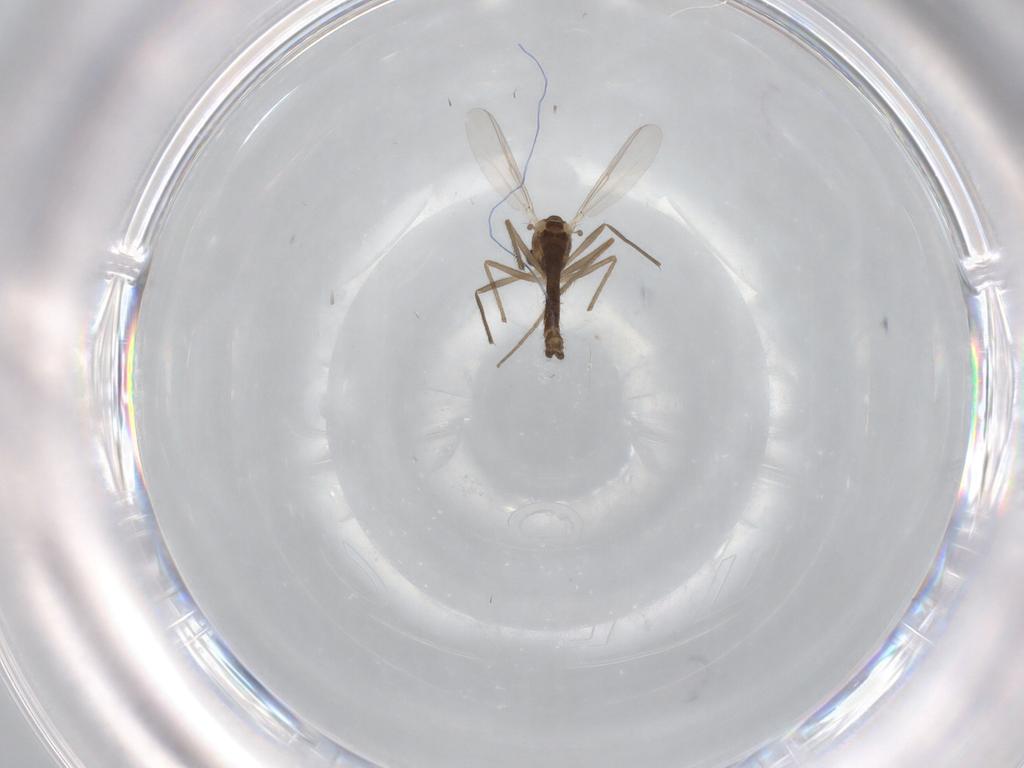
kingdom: Animalia
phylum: Arthropoda
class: Insecta
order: Diptera
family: Chironomidae
